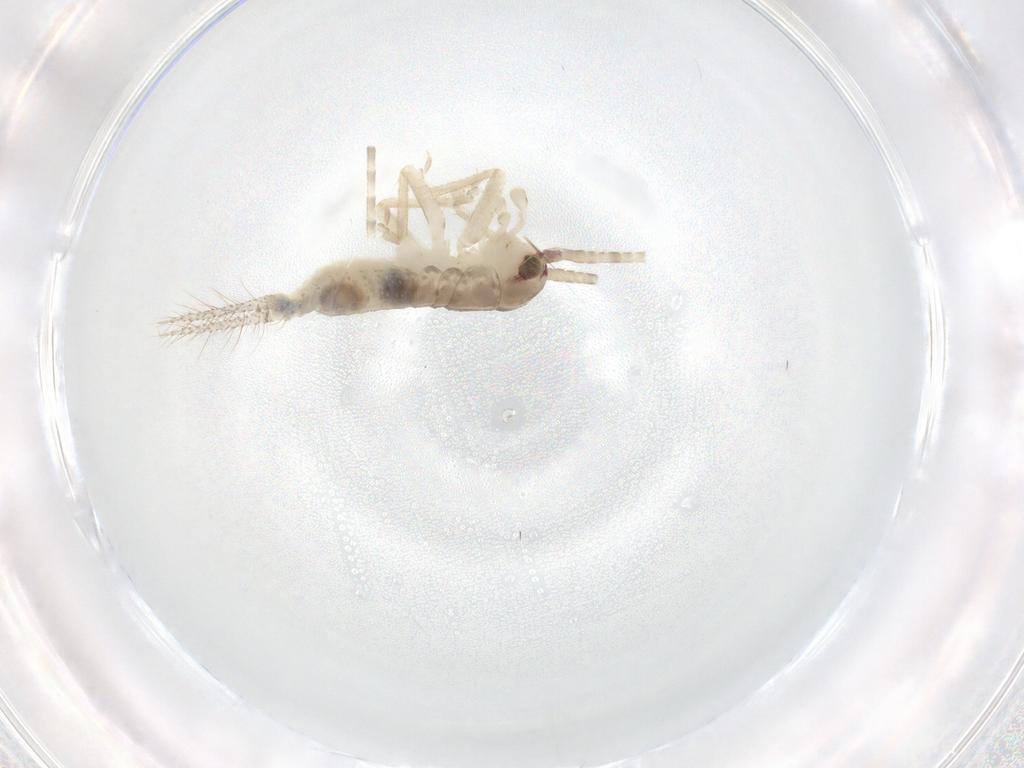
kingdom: Animalia
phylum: Arthropoda
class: Insecta
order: Orthoptera
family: Gryllidae
